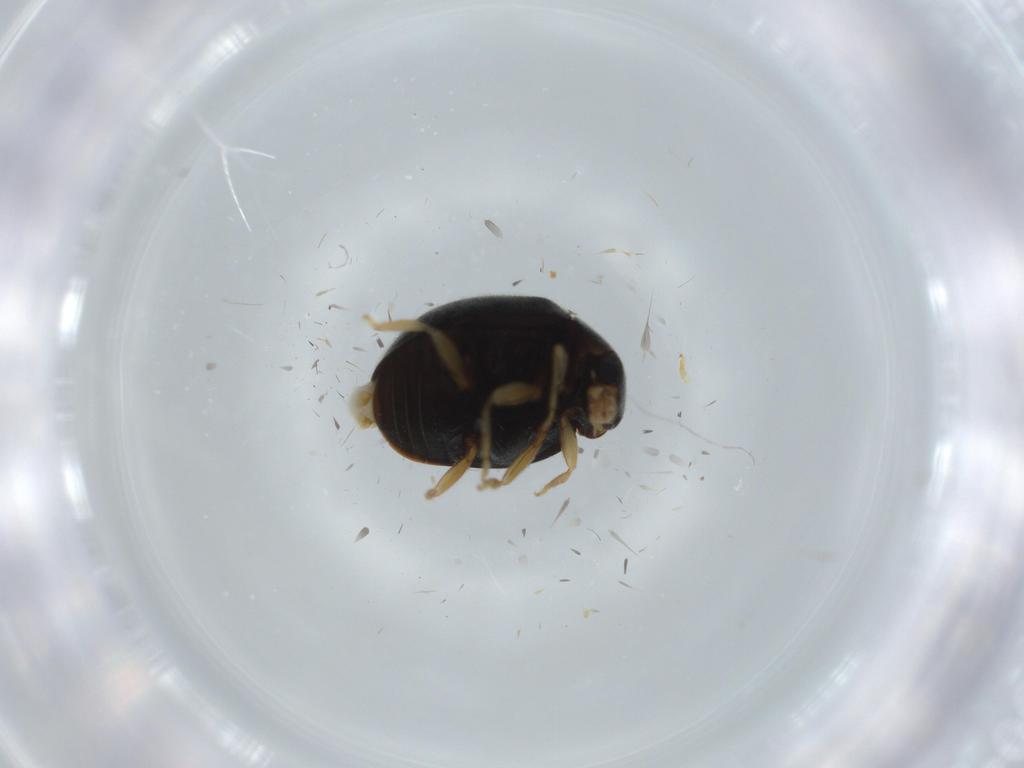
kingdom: Animalia
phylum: Arthropoda
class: Insecta
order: Coleoptera
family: Coccinellidae
